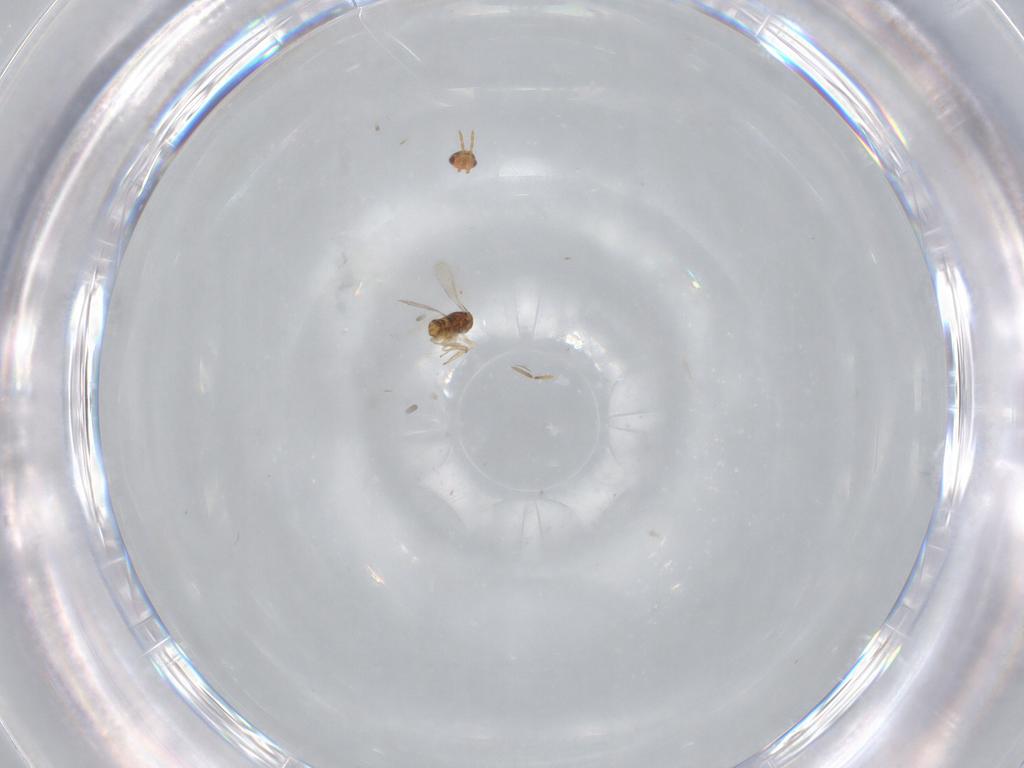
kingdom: Animalia
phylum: Arthropoda
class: Insecta
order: Hymenoptera
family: Aphelinidae
